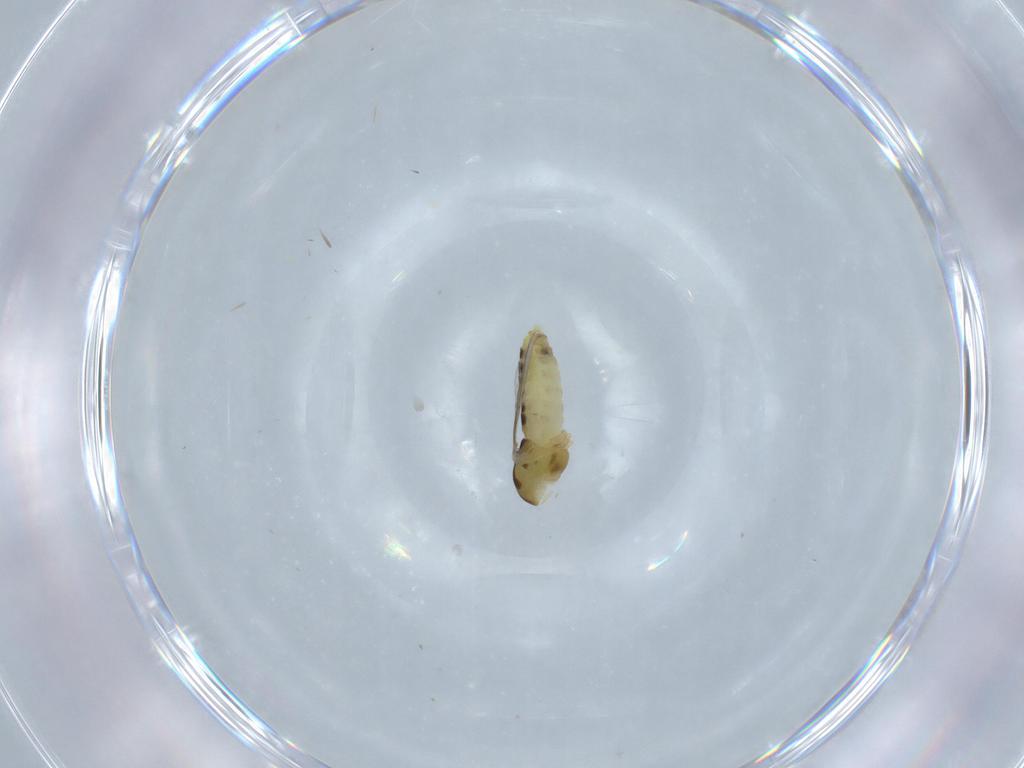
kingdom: Animalia
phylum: Arthropoda
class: Insecta
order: Diptera
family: Chironomidae
